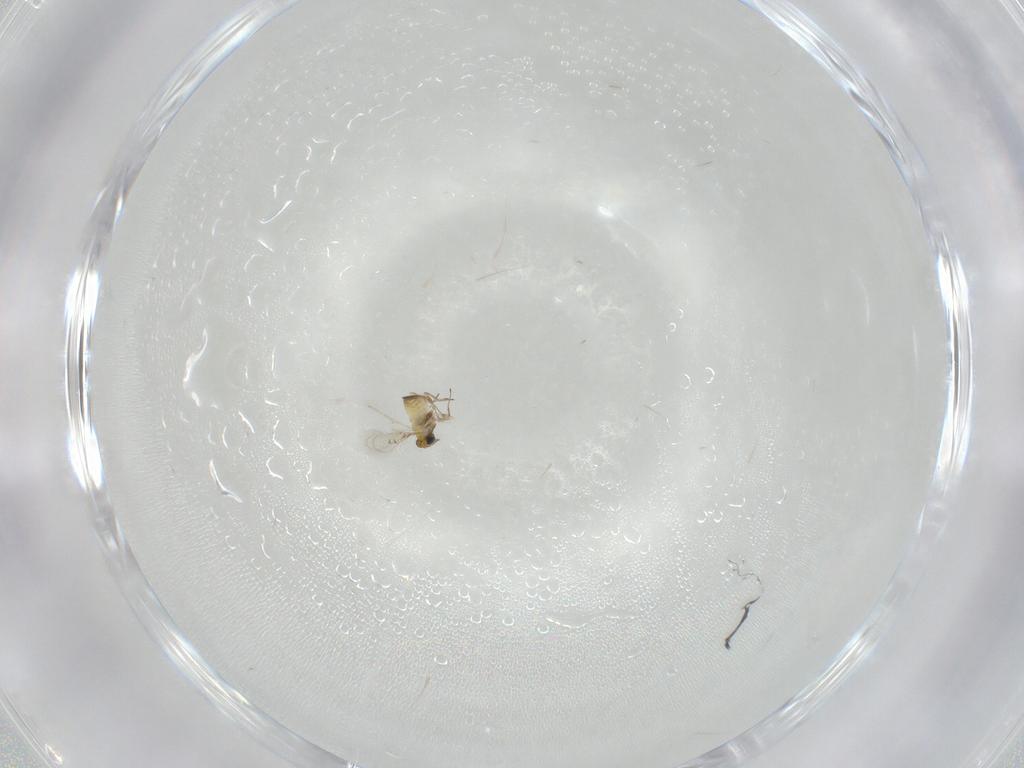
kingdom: Animalia
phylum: Arthropoda
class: Insecta
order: Hymenoptera
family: Trichogrammatidae
